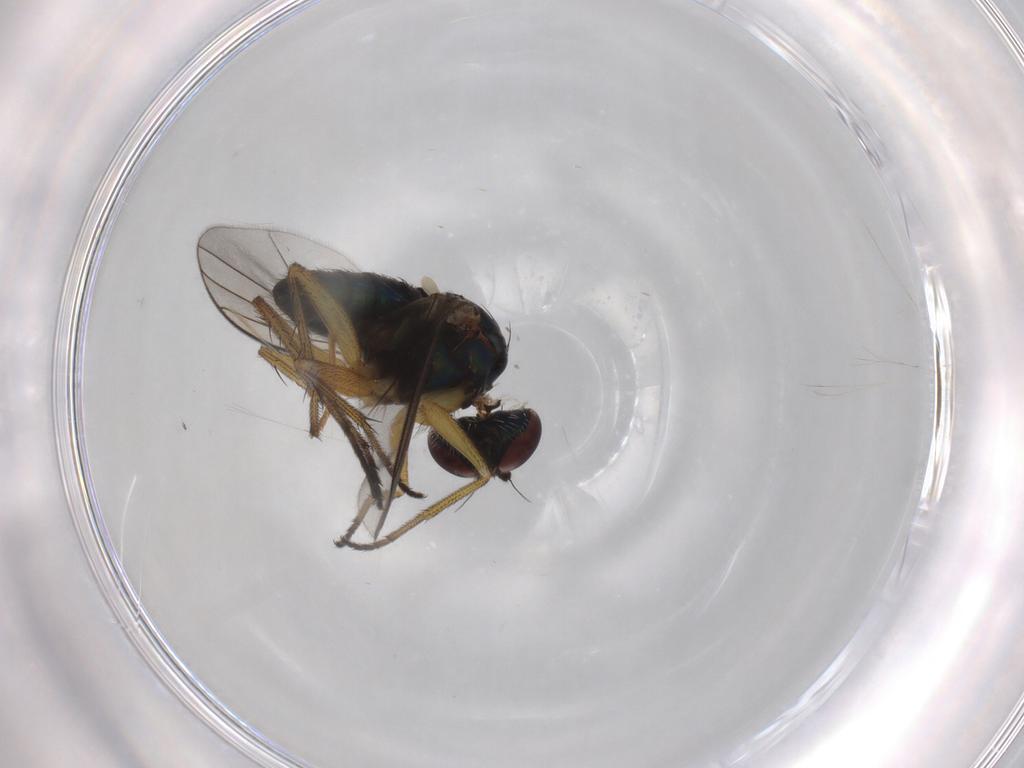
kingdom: Animalia
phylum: Arthropoda
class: Insecta
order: Diptera
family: Dolichopodidae
